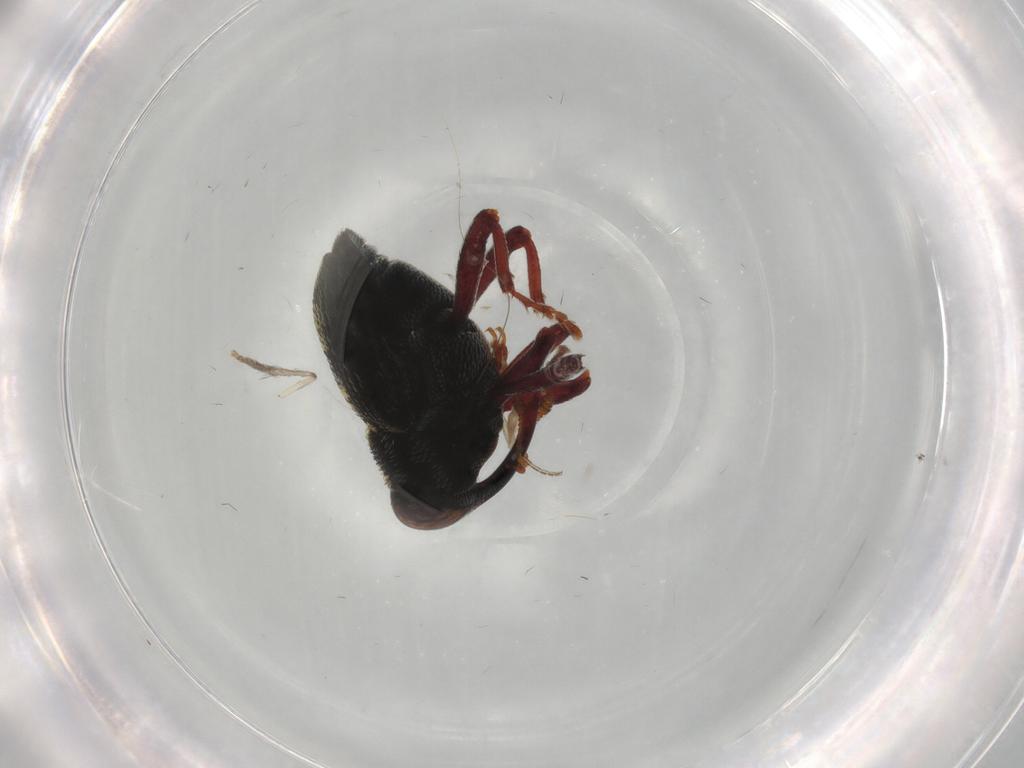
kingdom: Animalia
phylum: Arthropoda
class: Insecta
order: Coleoptera
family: Curculionidae
